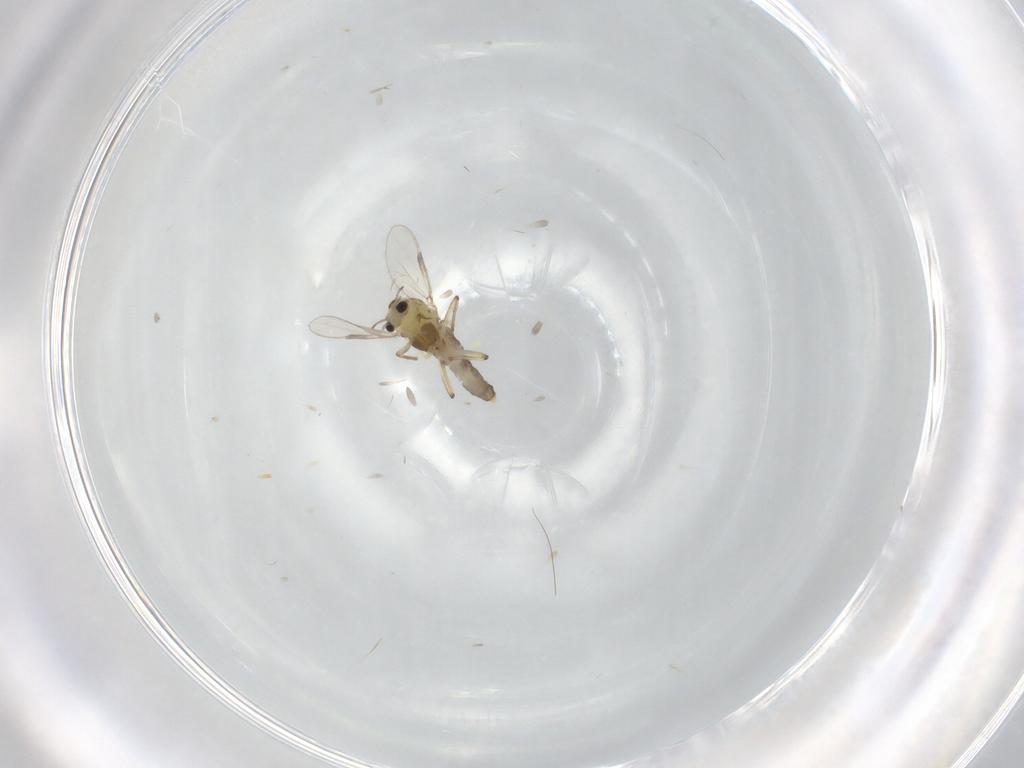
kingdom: Animalia
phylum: Arthropoda
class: Insecta
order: Diptera
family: Chironomidae
